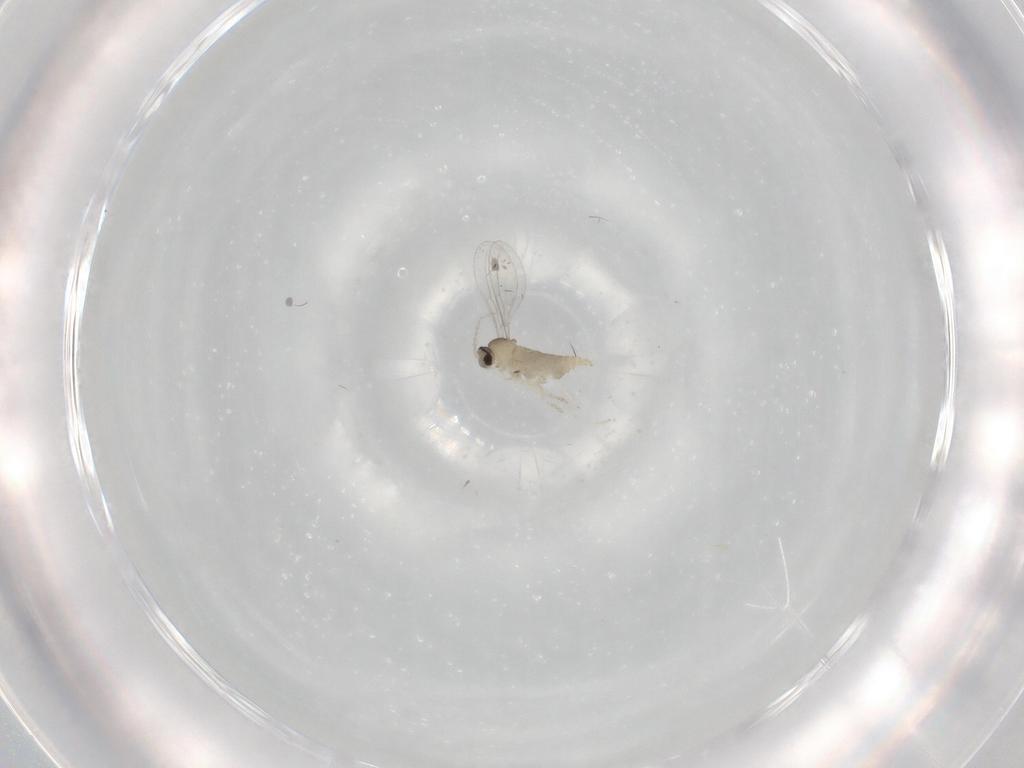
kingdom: Animalia
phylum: Arthropoda
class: Insecta
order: Diptera
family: Cecidomyiidae
